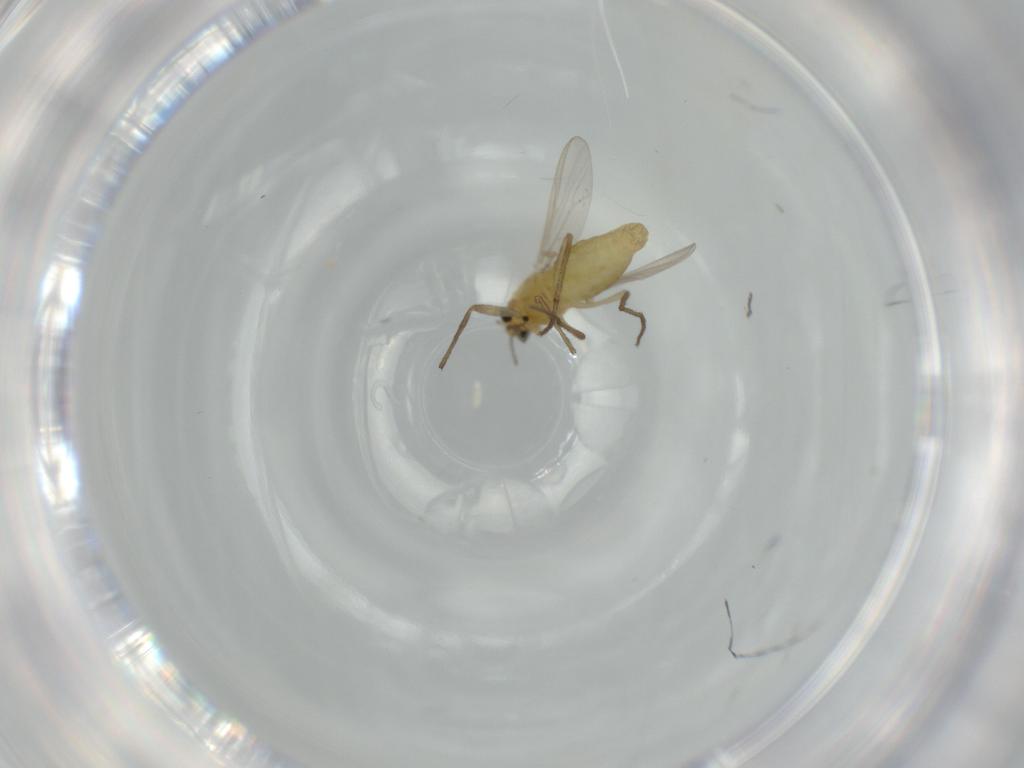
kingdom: Animalia
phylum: Arthropoda
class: Insecta
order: Diptera
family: Chironomidae
